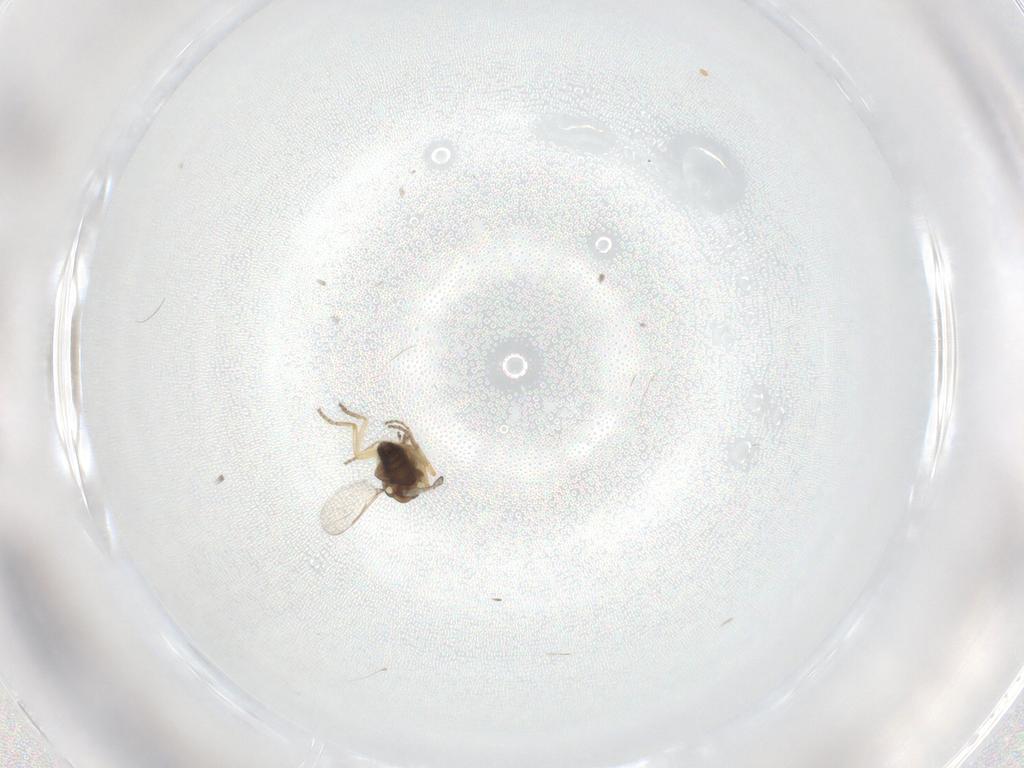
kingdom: Animalia
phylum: Arthropoda
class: Insecta
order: Diptera
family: Ceratopogonidae
